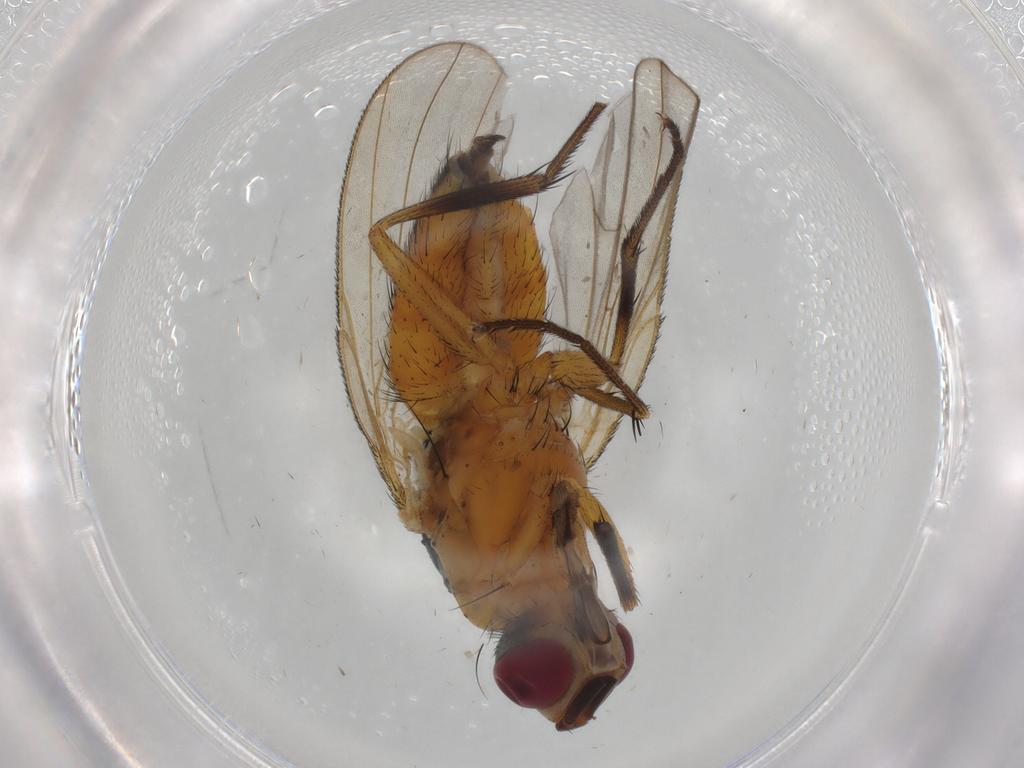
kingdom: Animalia
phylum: Arthropoda
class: Insecta
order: Diptera
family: Muscidae
